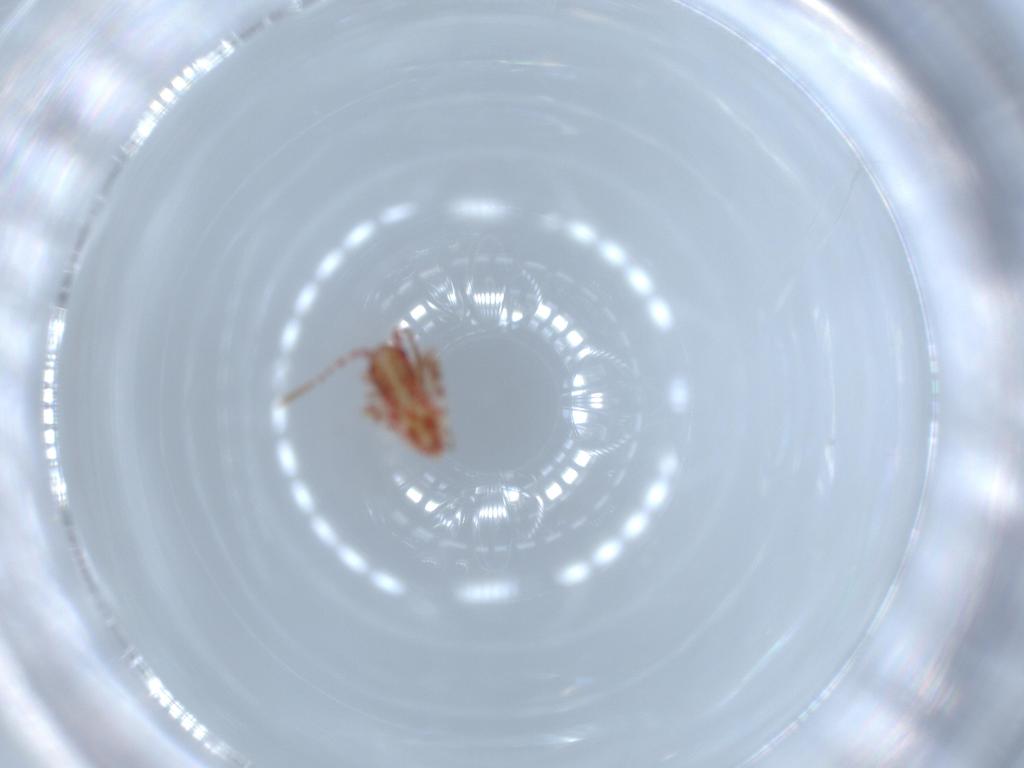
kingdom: Animalia
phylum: Arthropoda
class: Insecta
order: Hemiptera
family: Miridae
